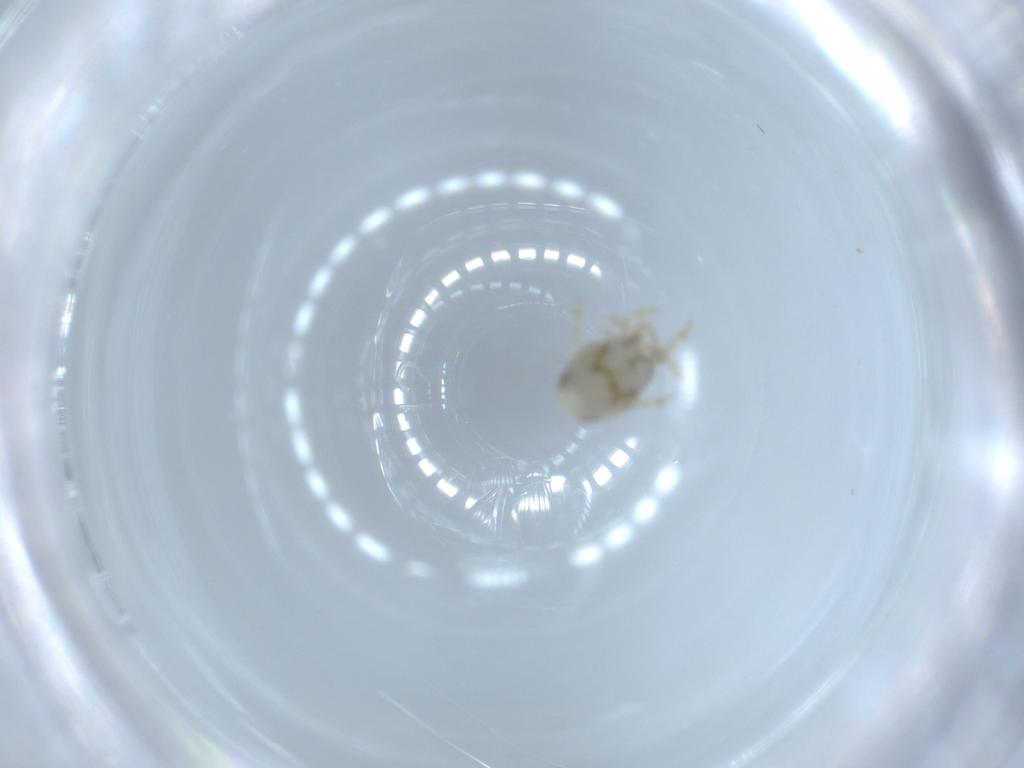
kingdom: Animalia
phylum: Arthropoda
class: Insecta
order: Hemiptera
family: Acanaloniidae
